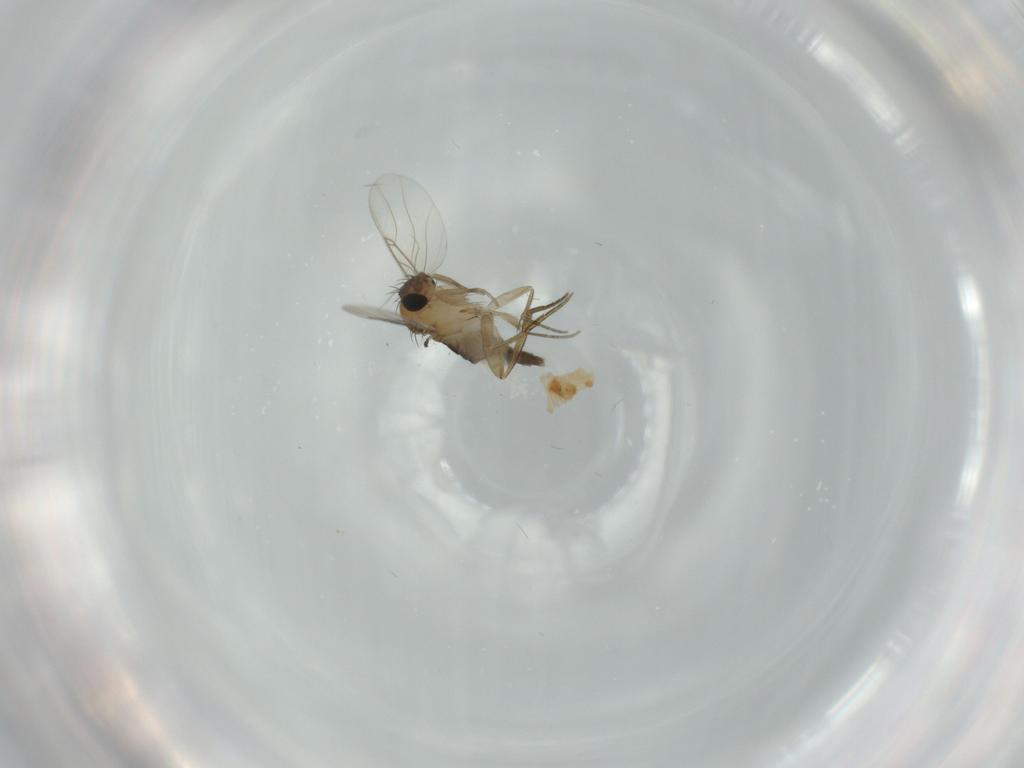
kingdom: Animalia
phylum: Arthropoda
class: Insecta
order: Diptera
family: Phoridae
